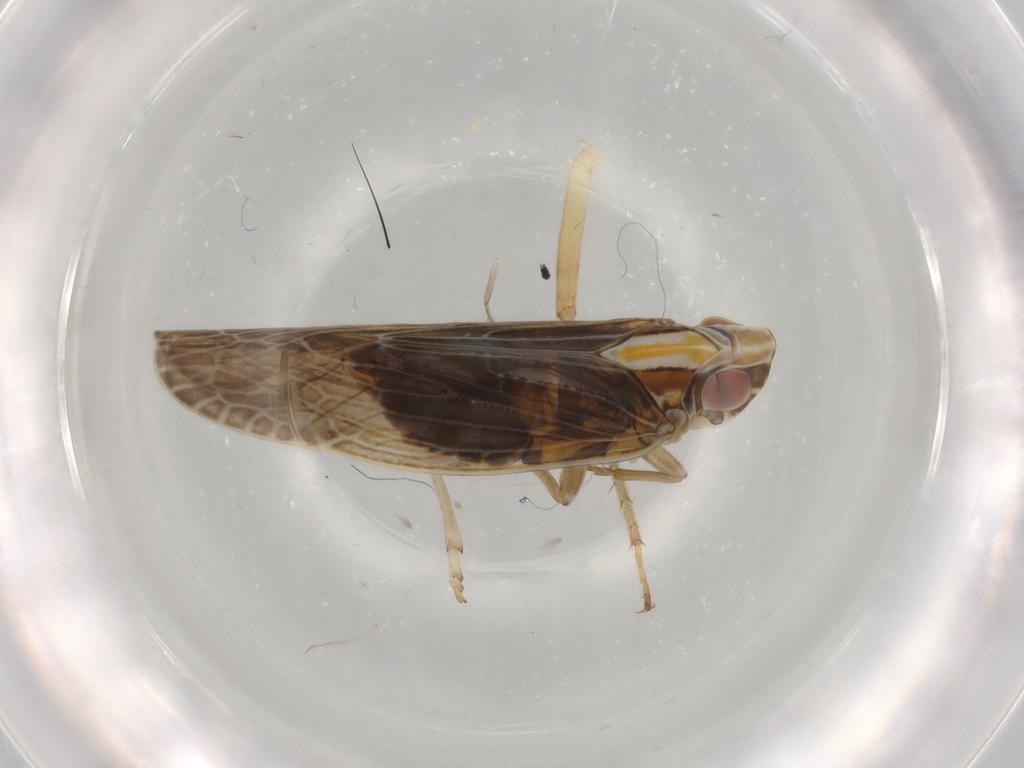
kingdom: Animalia
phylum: Arthropoda
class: Insecta
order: Hemiptera
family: Achilidae
